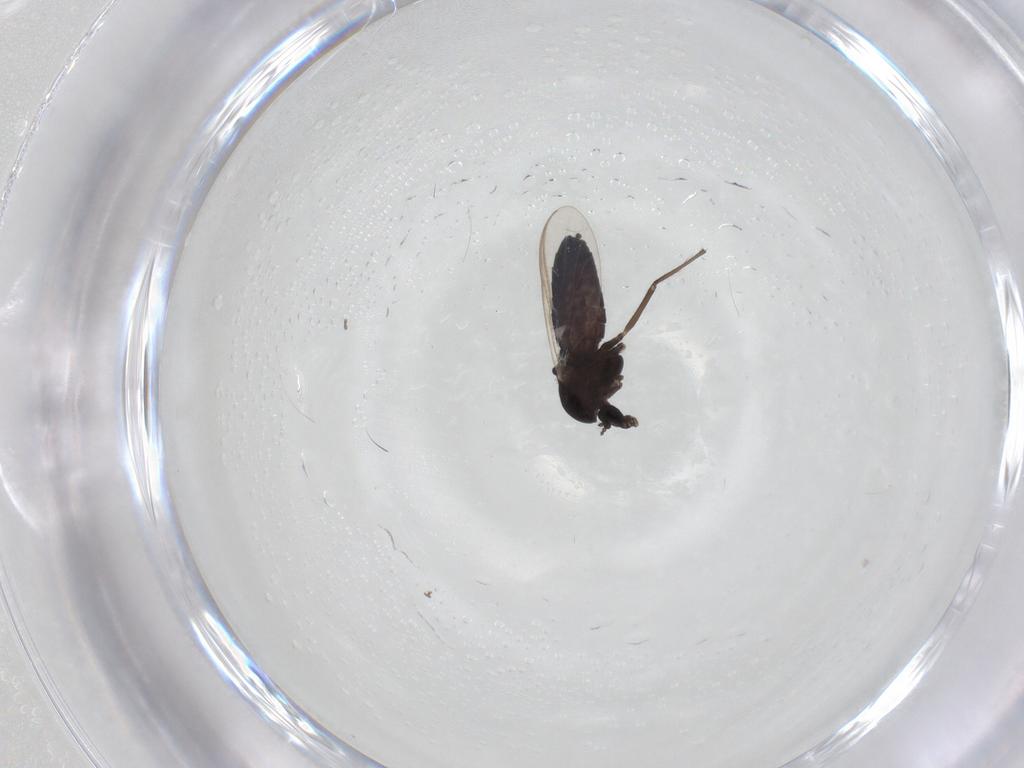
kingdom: Animalia
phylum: Arthropoda
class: Insecta
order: Diptera
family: Chironomidae
